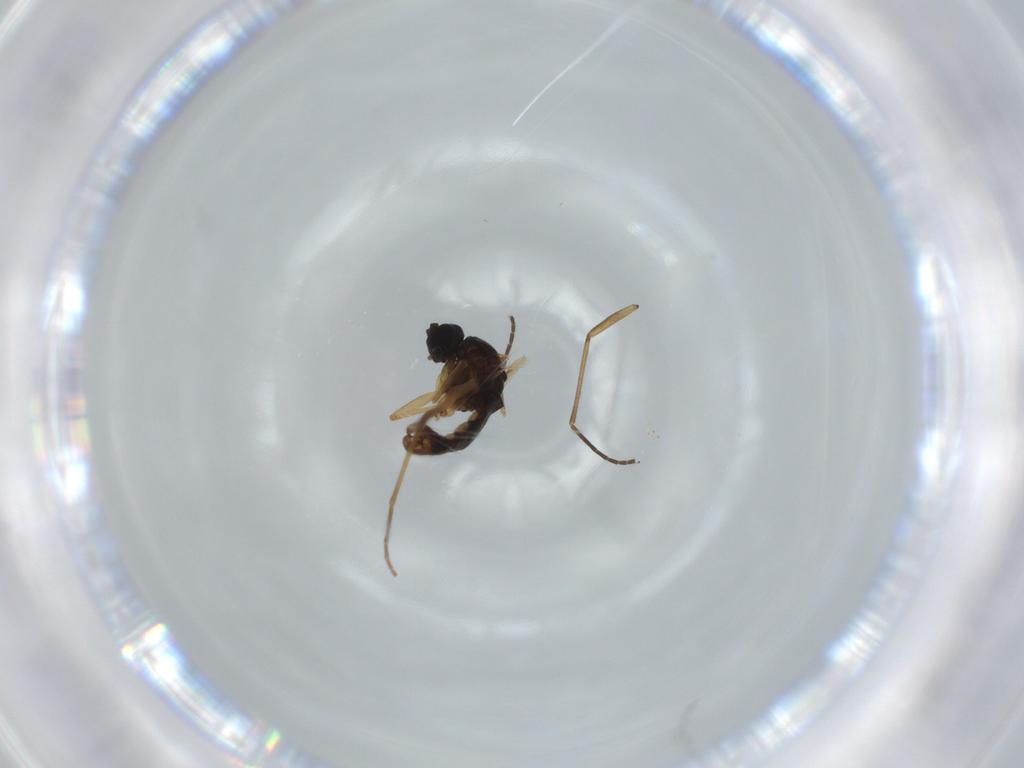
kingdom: Animalia
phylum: Arthropoda
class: Insecta
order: Diptera
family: Sciaridae
